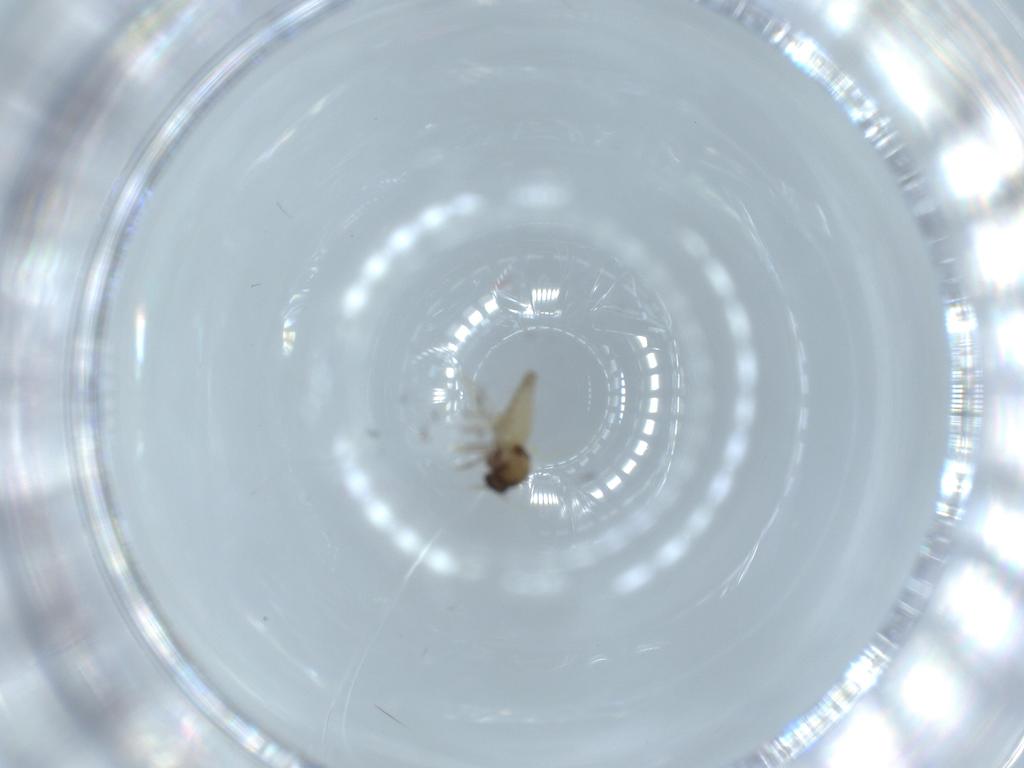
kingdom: Animalia
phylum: Arthropoda
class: Insecta
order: Diptera
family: Ceratopogonidae
